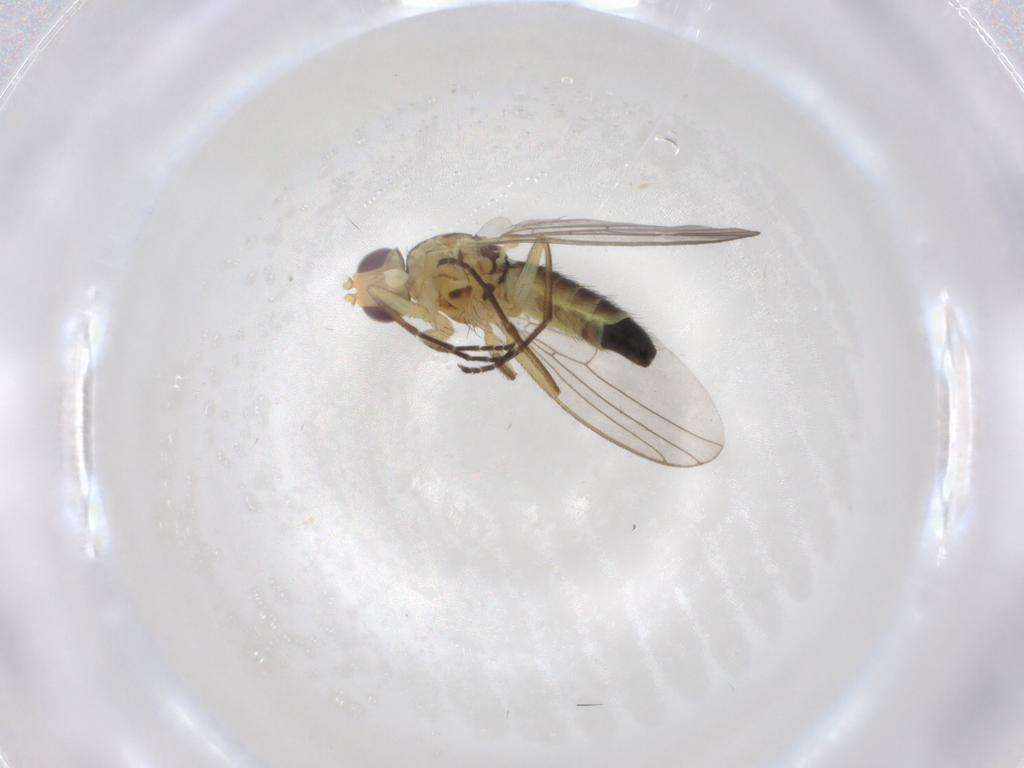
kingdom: Animalia
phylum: Arthropoda
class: Insecta
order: Diptera
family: Agromyzidae
